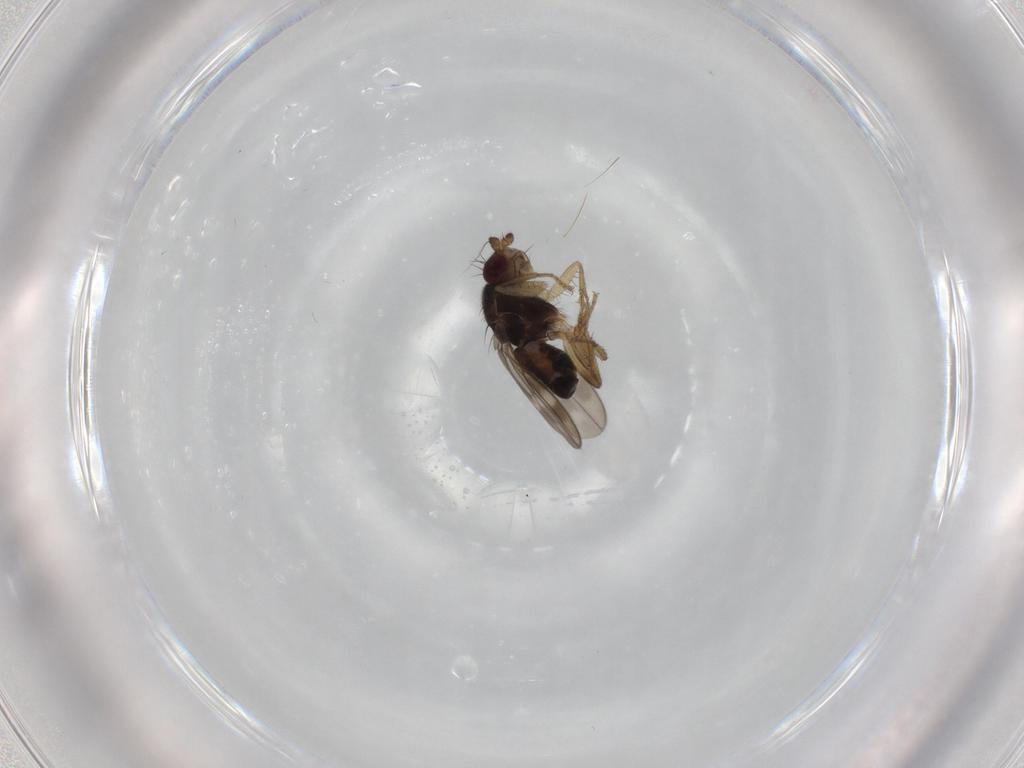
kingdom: Animalia
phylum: Arthropoda
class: Insecta
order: Diptera
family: Sphaeroceridae
